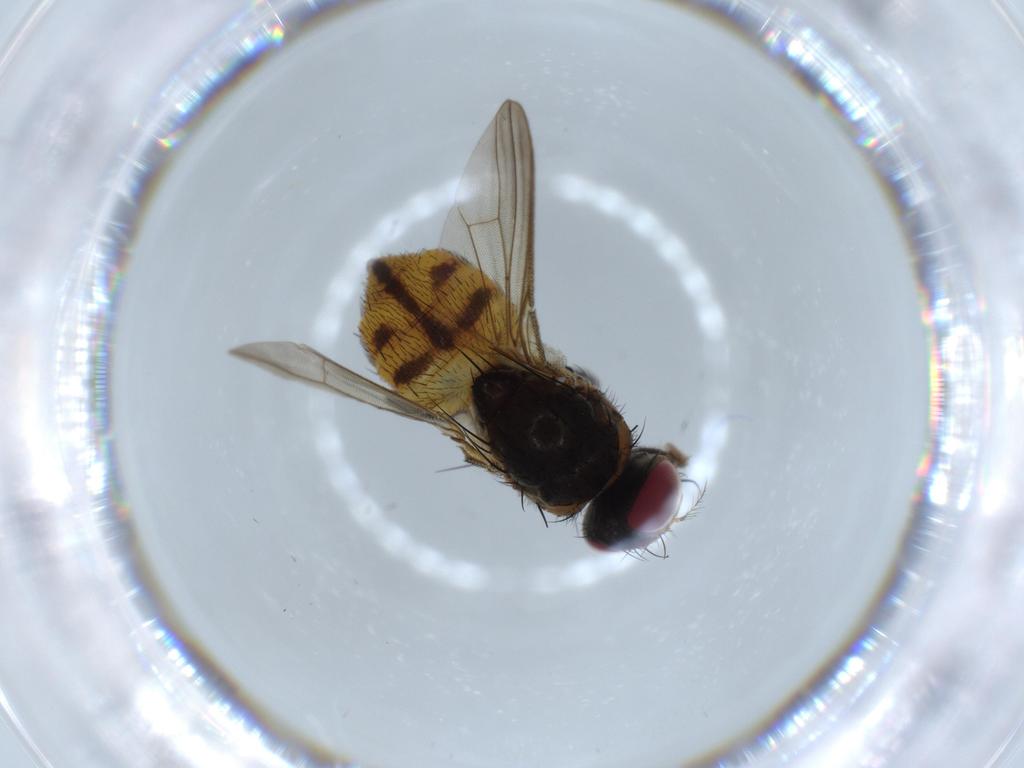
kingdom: Animalia
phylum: Arthropoda
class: Insecta
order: Diptera
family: Anthomyiidae
